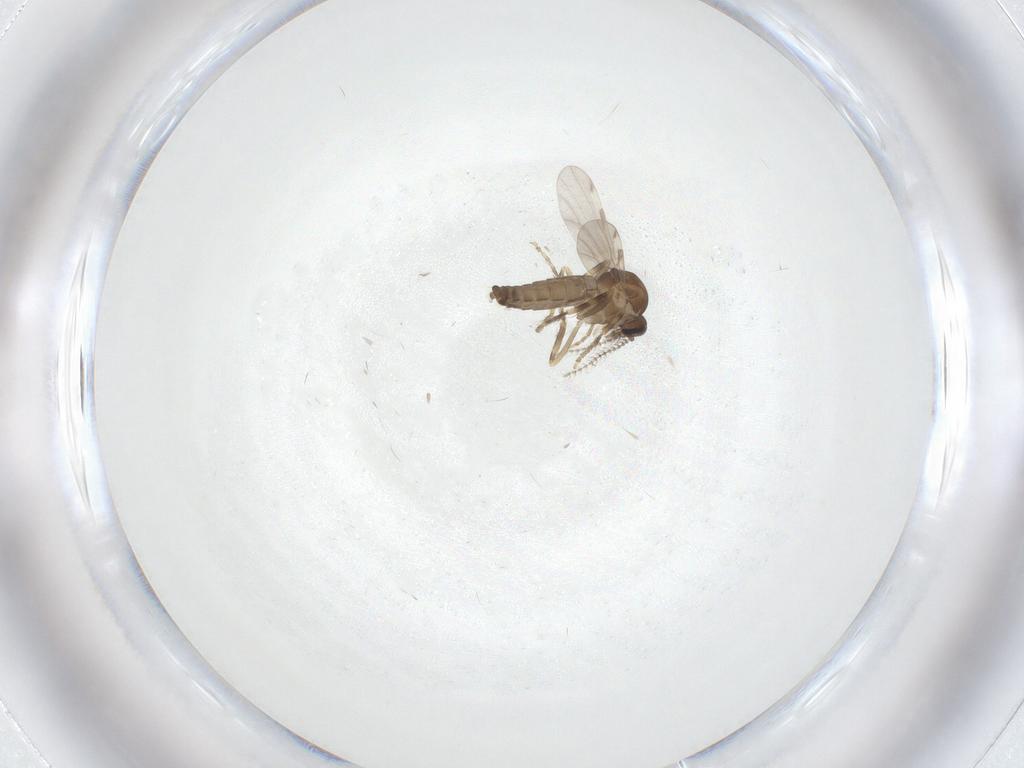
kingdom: Animalia
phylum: Arthropoda
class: Insecta
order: Diptera
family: Ceratopogonidae
